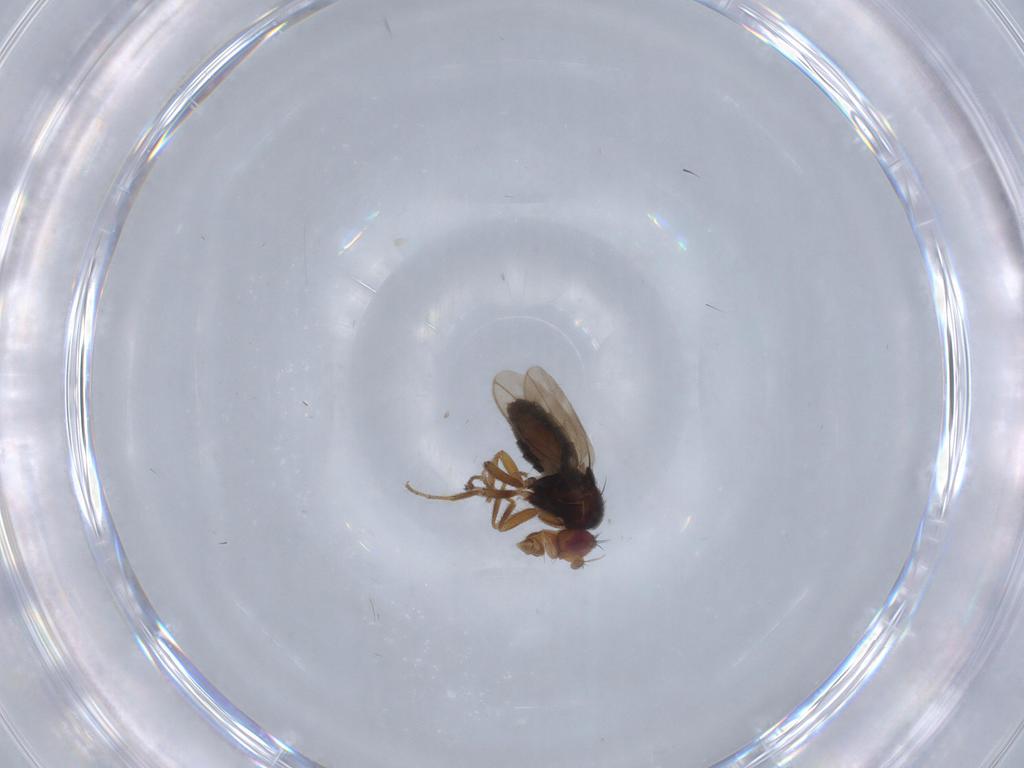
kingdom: Animalia
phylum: Arthropoda
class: Insecta
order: Diptera
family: Sphaeroceridae
